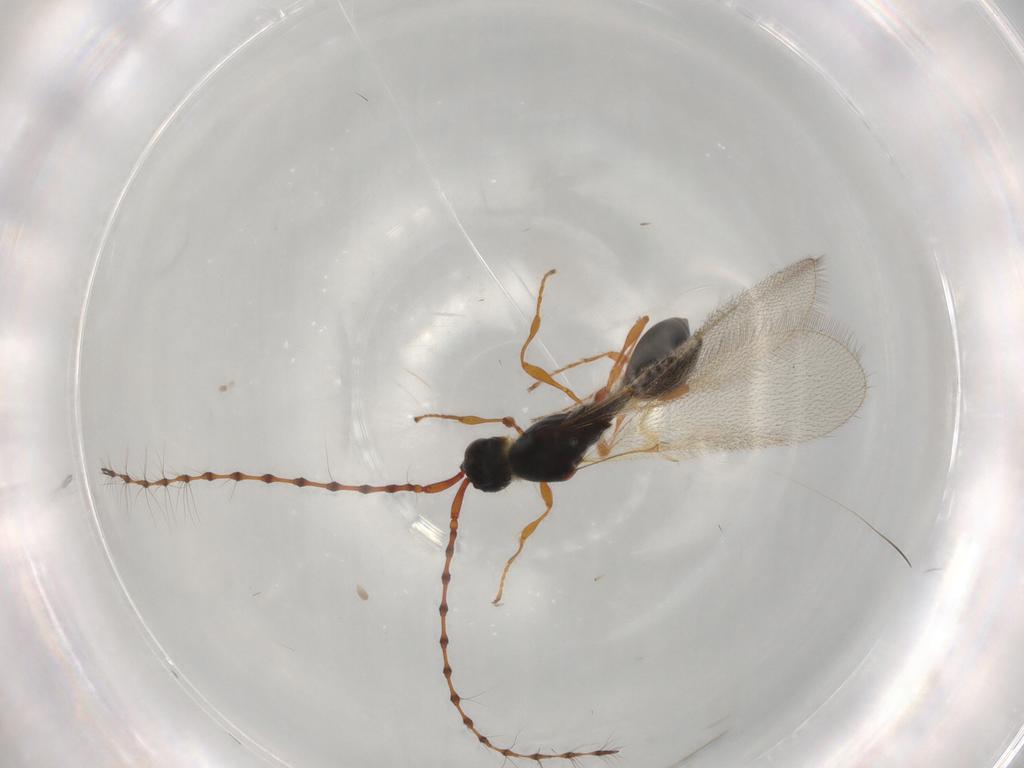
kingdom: Animalia
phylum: Arthropoda
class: Insecta
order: Hymenoptera
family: Diapriidae
